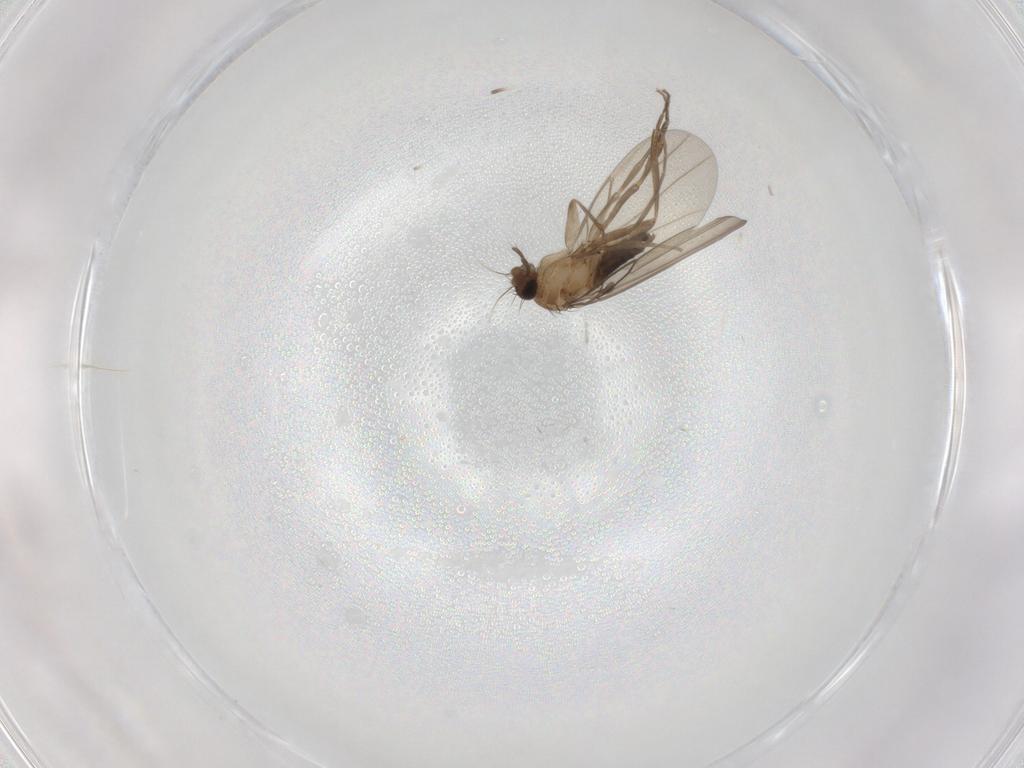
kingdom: Animalia
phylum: Arthropoda
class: Insecta
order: Diptera
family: Phoridae
